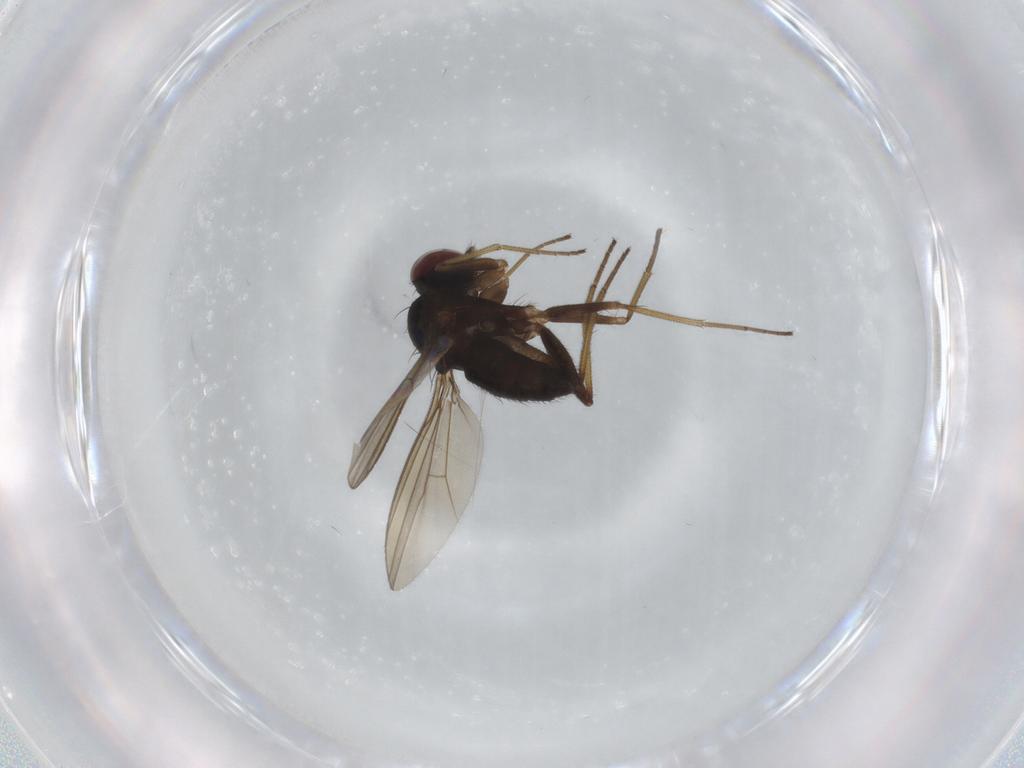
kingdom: Animalia
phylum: Arthropoda
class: Insecta
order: Diptera
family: Dolichopodidae
